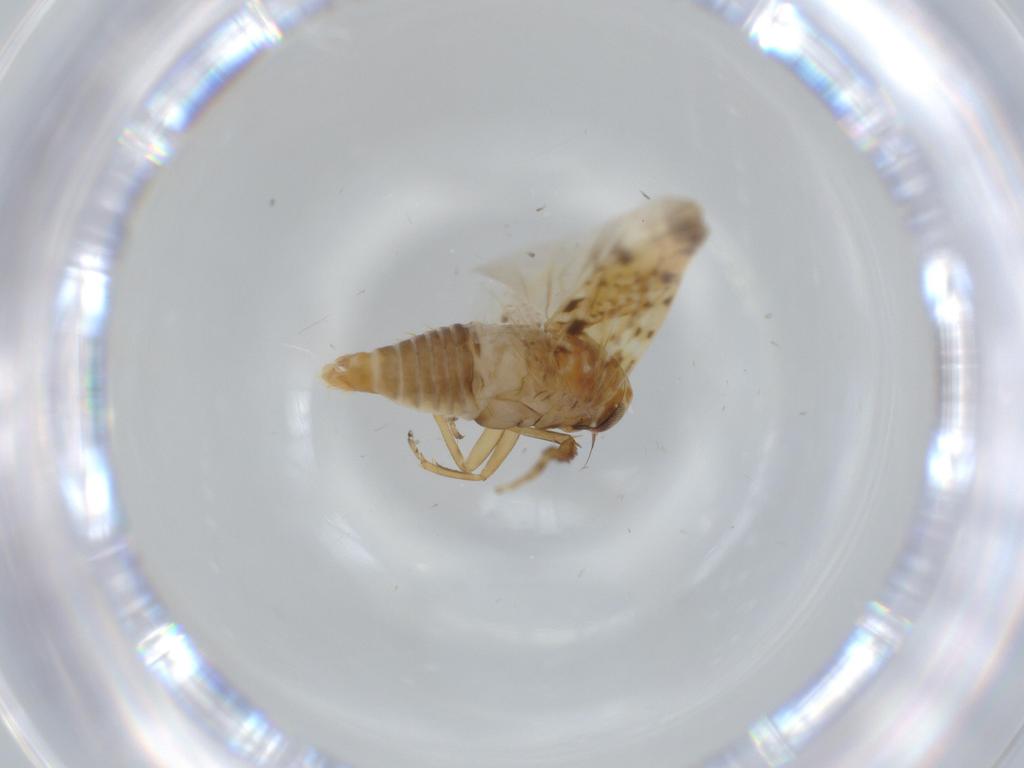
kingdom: Animalia
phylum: Arthropoda
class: Insecta
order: Hemiptera
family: Cicadellidae
